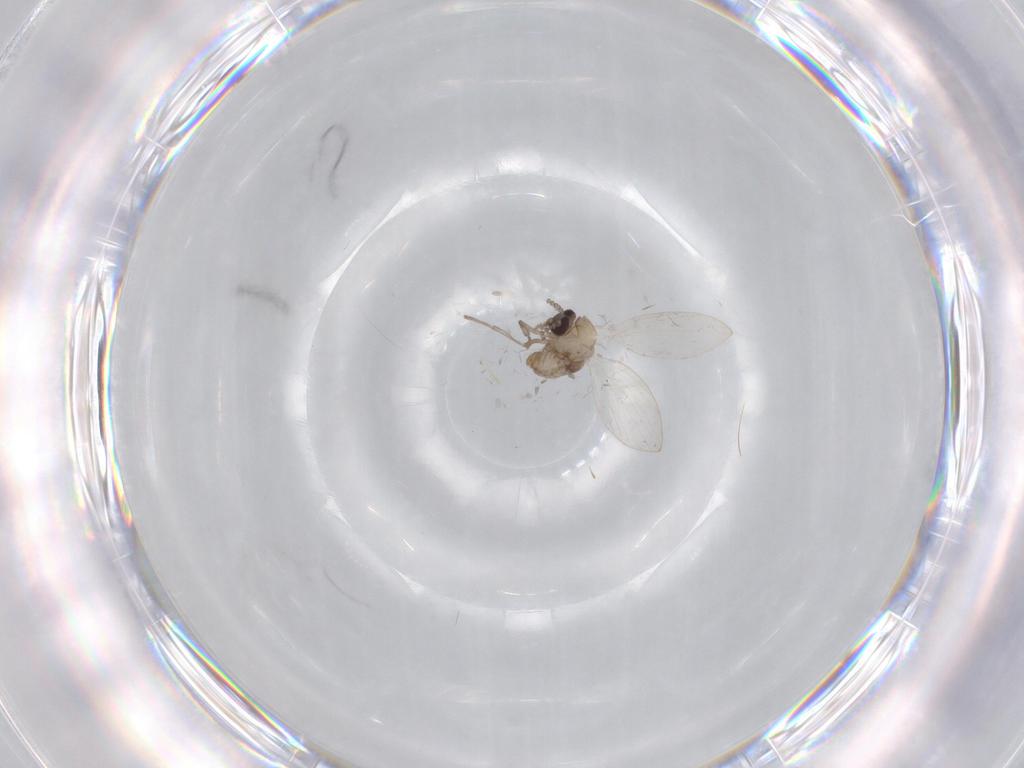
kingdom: Animalia
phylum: Arthropoda
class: Insecta
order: Diptera
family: Psychodidae
